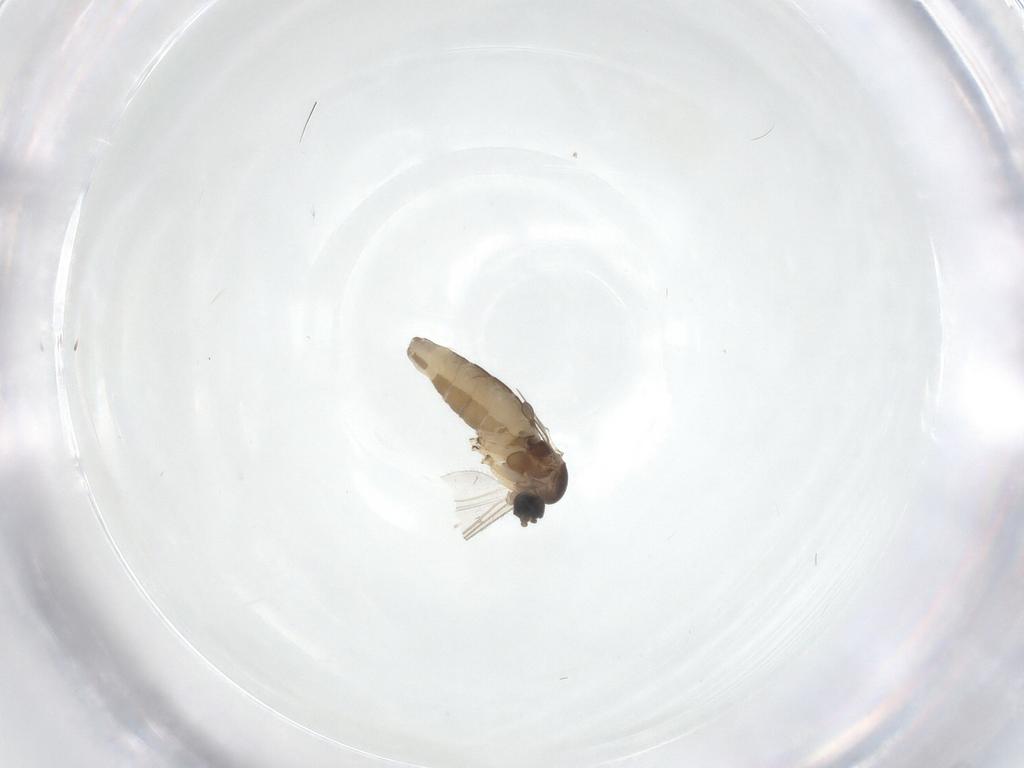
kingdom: Animalia
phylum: Arthropoda
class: Insecta
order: Diptera
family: Sciaridae
